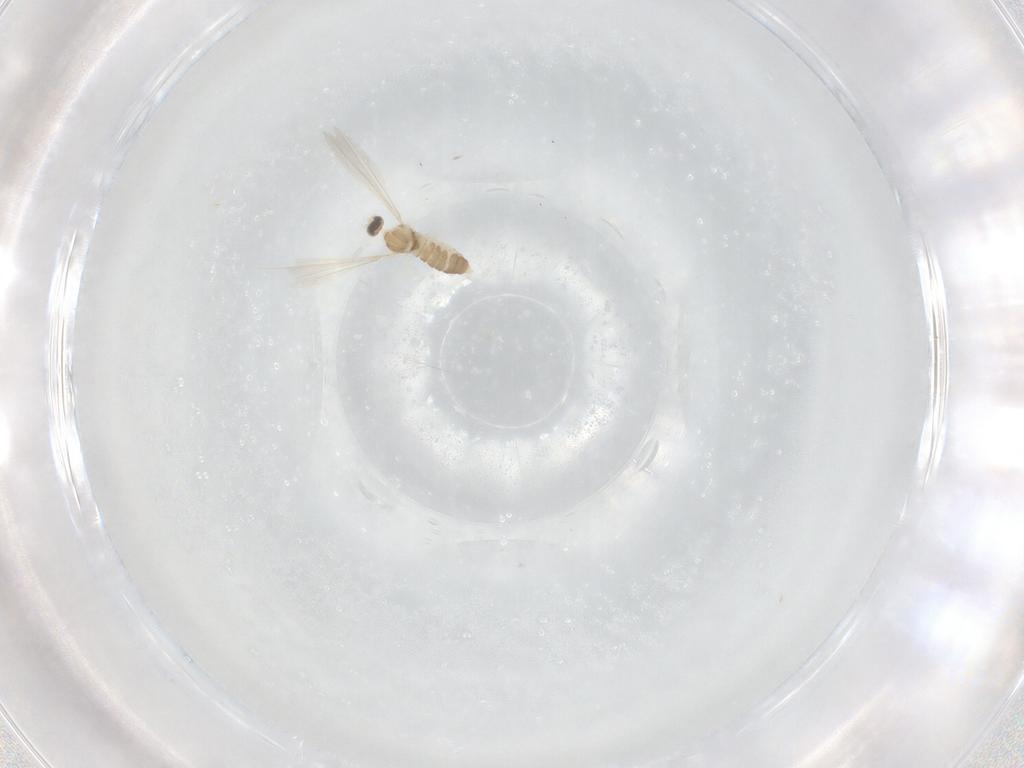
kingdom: Animalia
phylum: Arthropoda
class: Insecta
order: Diptera
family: Cecidomyiidae
